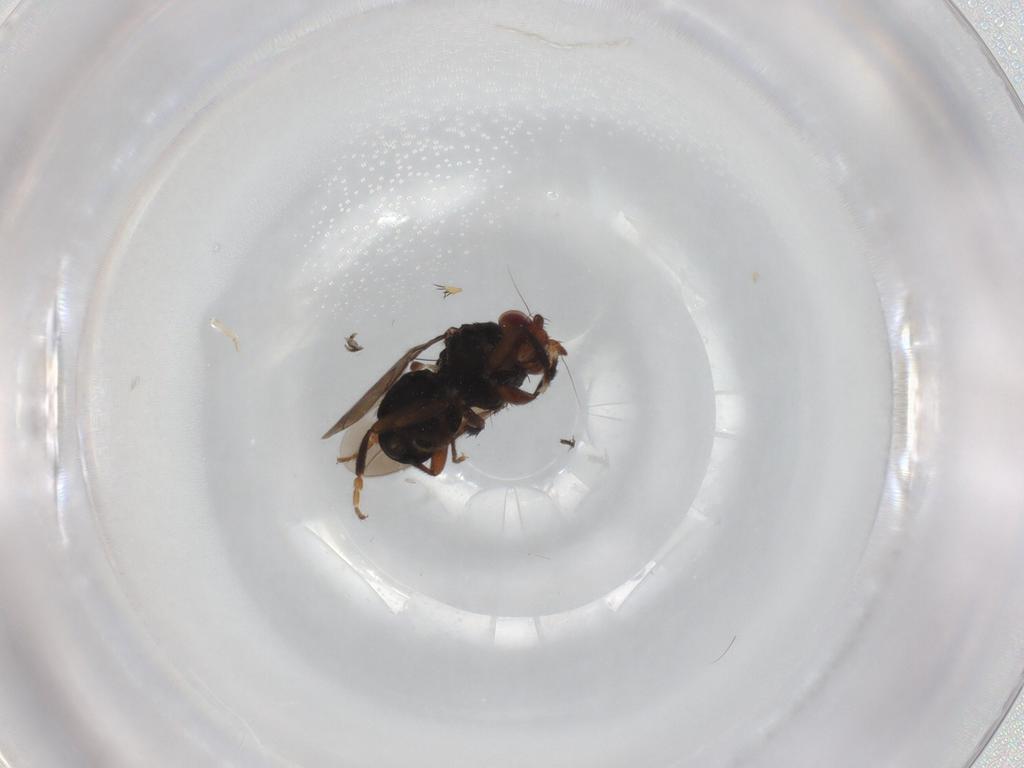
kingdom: Animalia
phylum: Arthropoda
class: Insecta
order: Diptera
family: Sphaeroceridae
